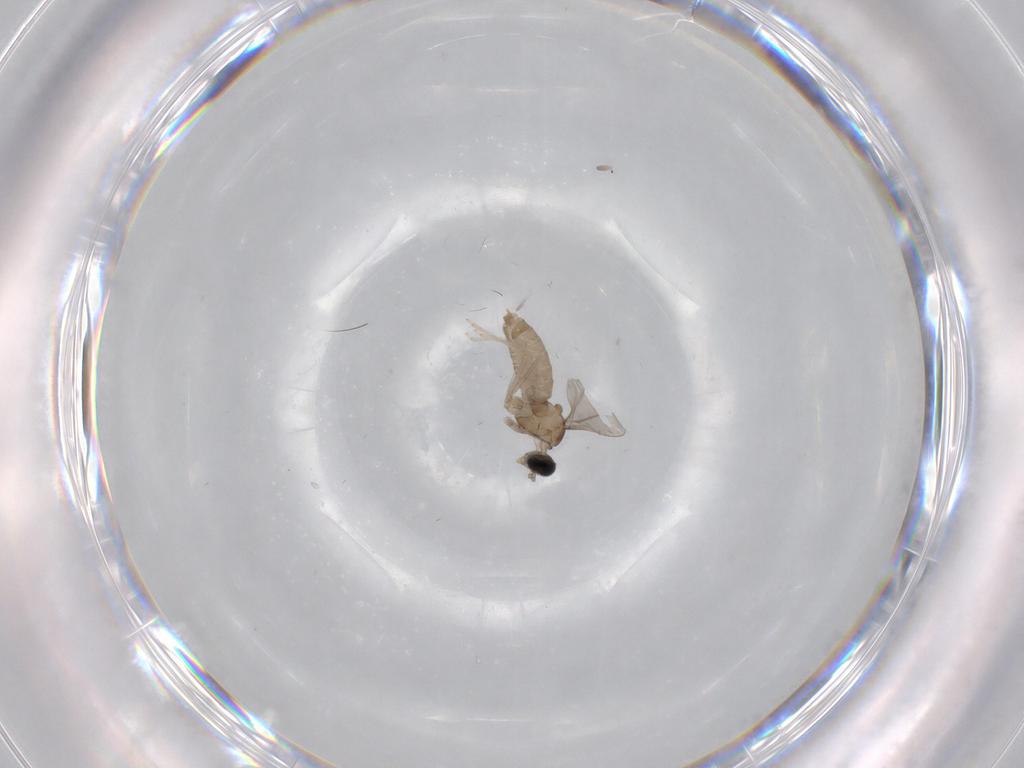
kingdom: Animalia
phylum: Arthropoda
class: Insecta
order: Diptera
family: Cecidomyiidae
